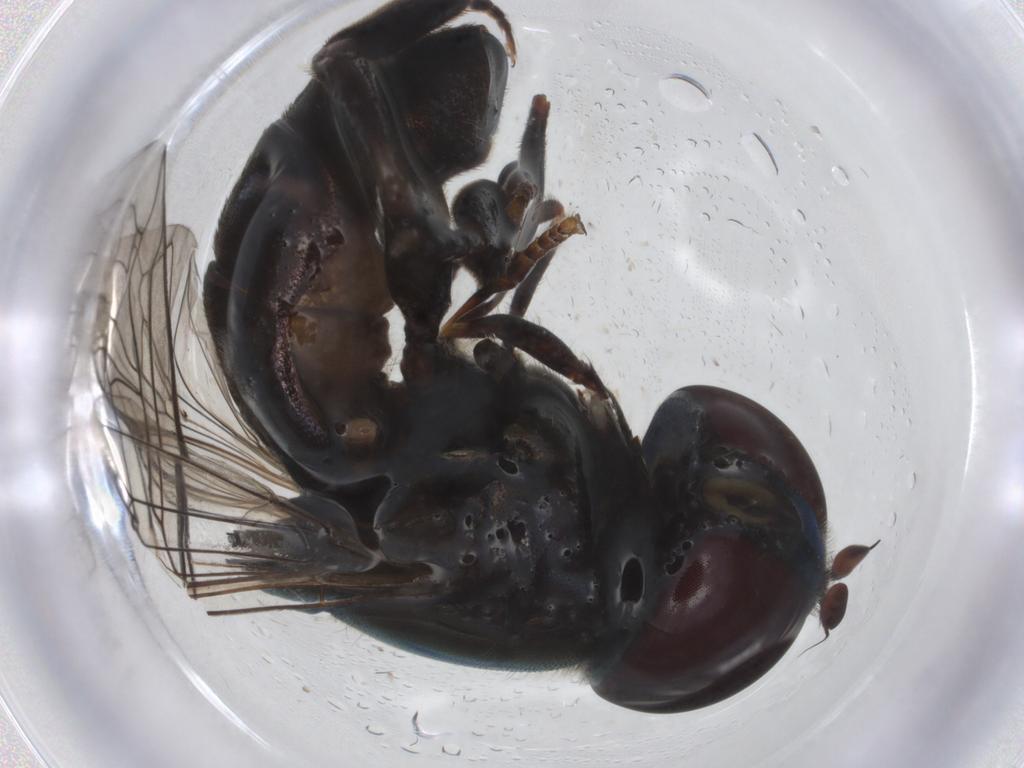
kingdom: Animalia
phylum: Arthropoda
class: Insecta
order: Diptera
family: Syrphidae
